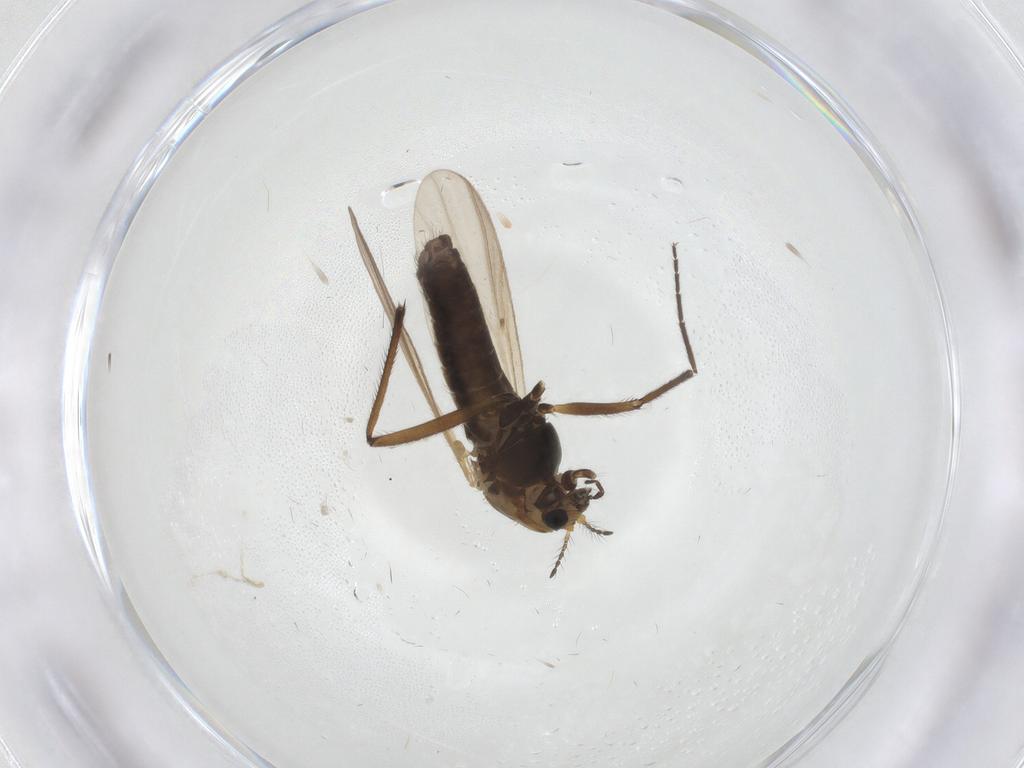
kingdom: Animalia
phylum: Arthropoda
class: Insecta
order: Diptera
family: Chironomidae
